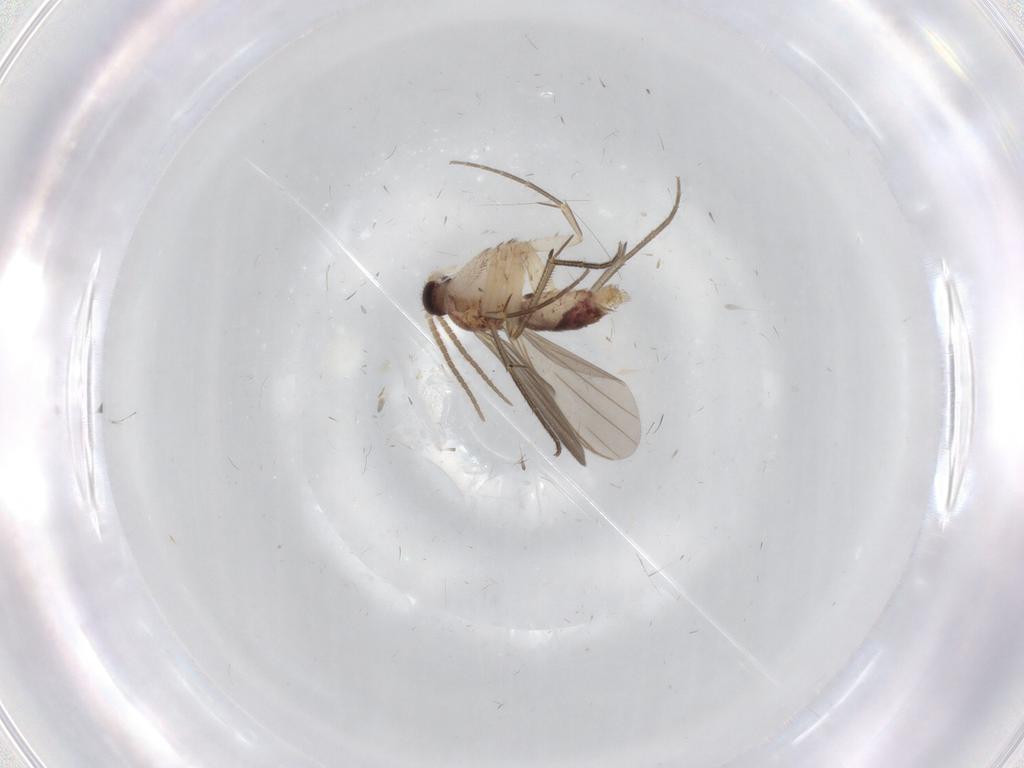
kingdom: Animalia
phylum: Arthropoda
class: Insecta
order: Diptera
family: Mycetophilidae
